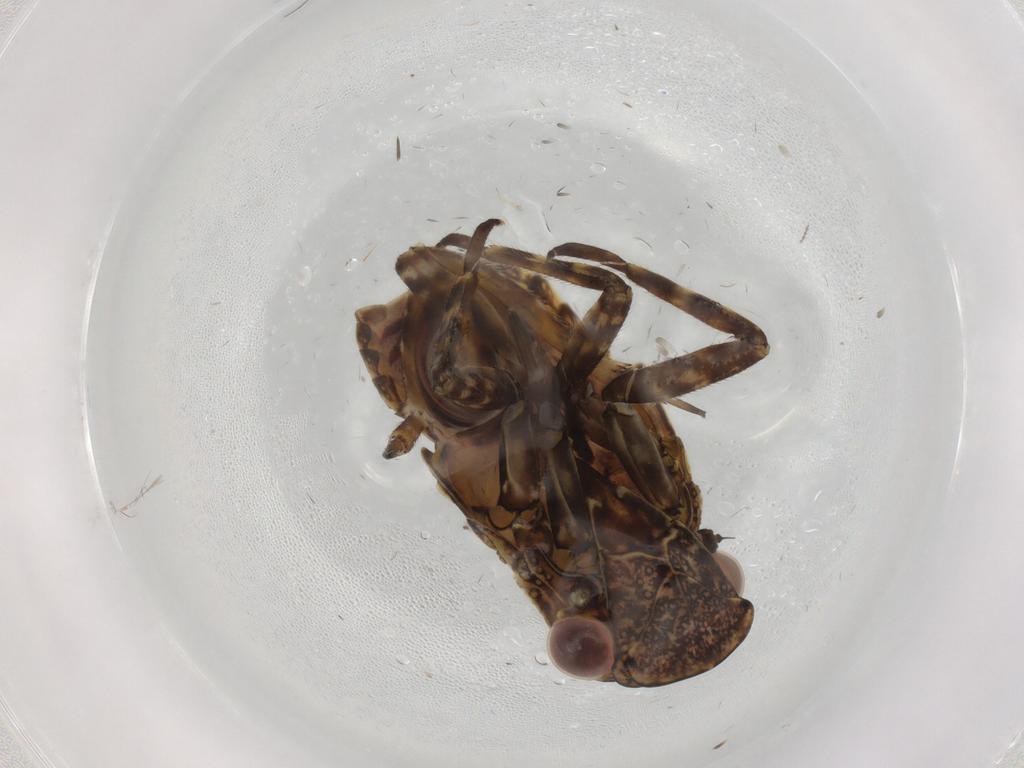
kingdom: Animalia
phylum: Arthropoda
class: Insecta
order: Hemiptera
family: Fulgoridae
